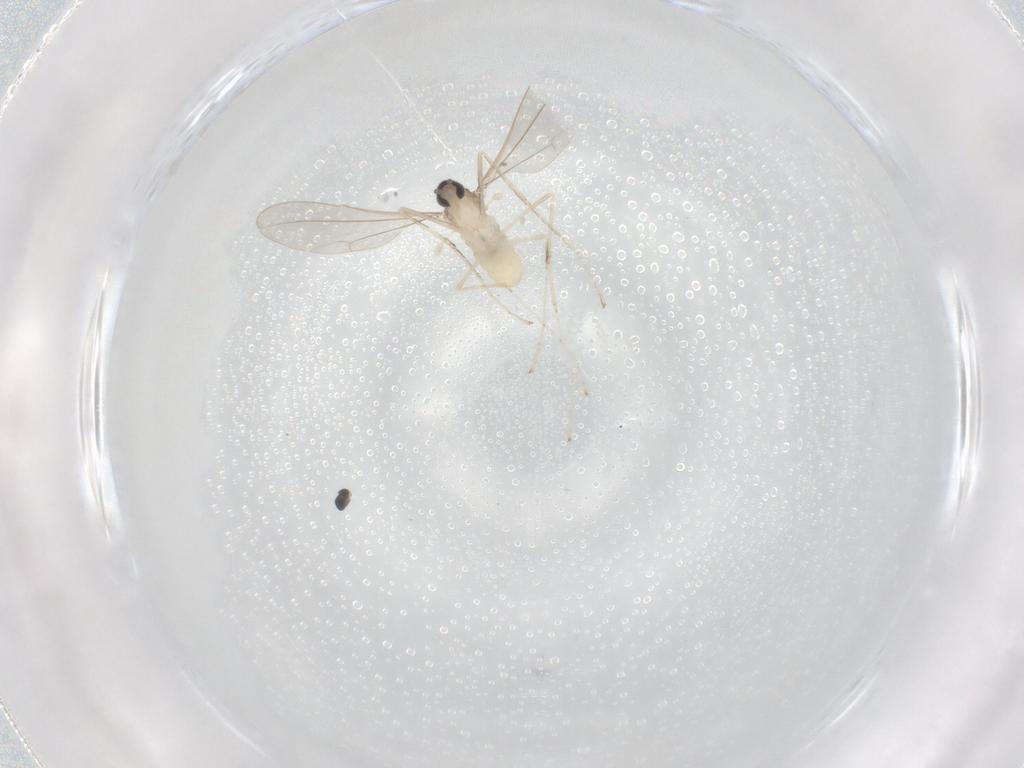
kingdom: Animalia
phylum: Arthropoda
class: Insecta
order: Diptera
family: Cecidomyiidae
